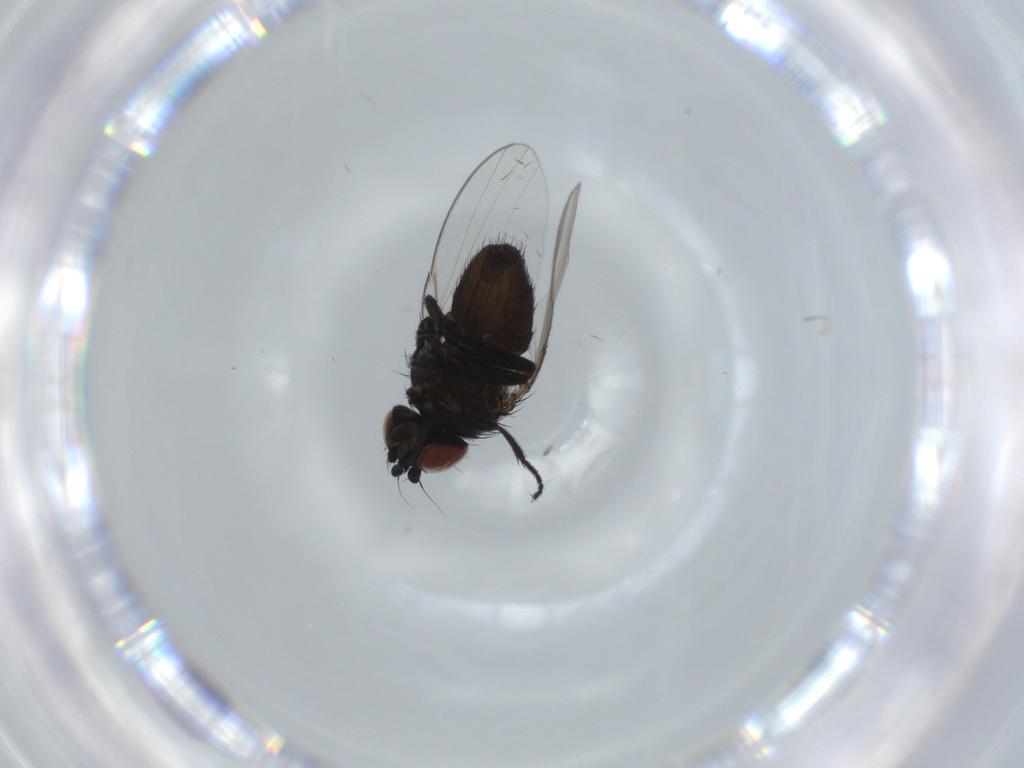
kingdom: Animalia
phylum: Arthropoda
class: Insecta
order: Diptera
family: Milichiidae
